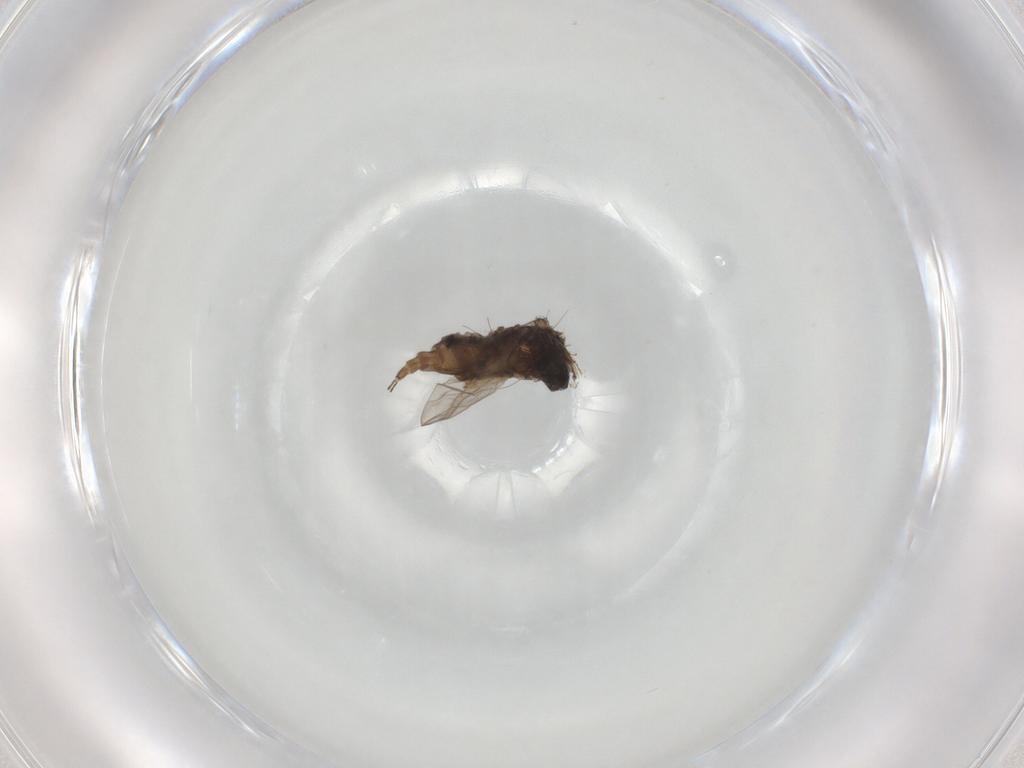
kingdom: Animalia
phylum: Arthropoda
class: Insecta
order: Diptera
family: Sciaridae
